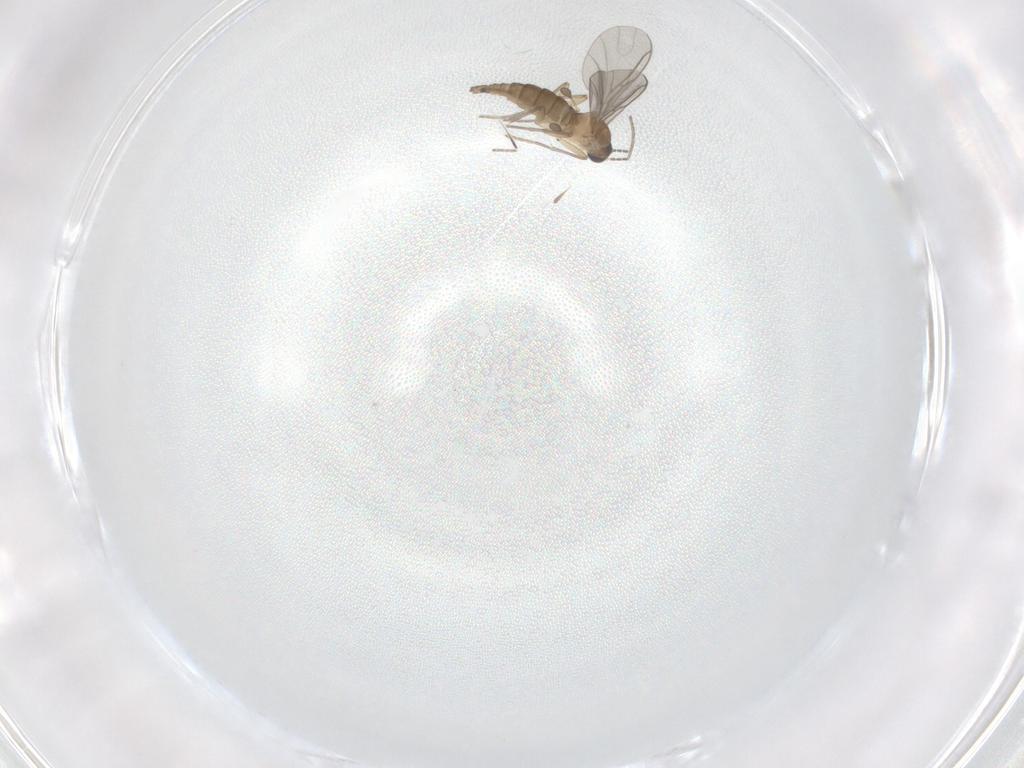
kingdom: Animalia
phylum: Arthropoda
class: Insecta
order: Diptera
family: Sciaridae
